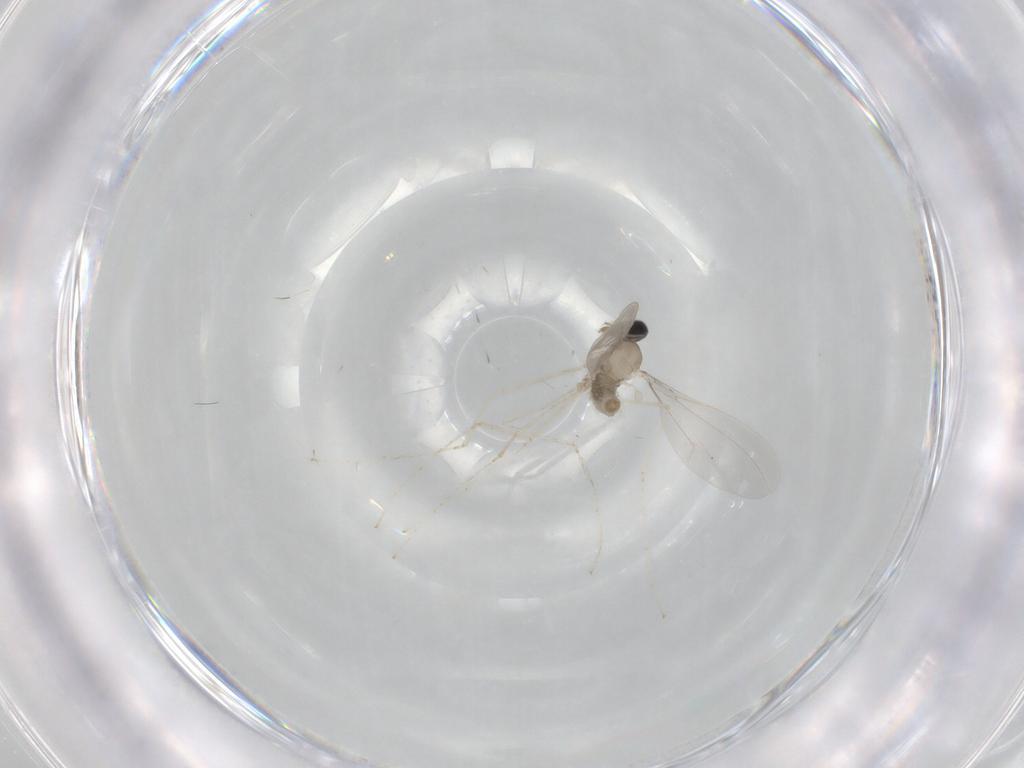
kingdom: Animalia
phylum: Arthropoda
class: Insecta
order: Diptera
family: Cecidomyiidae
